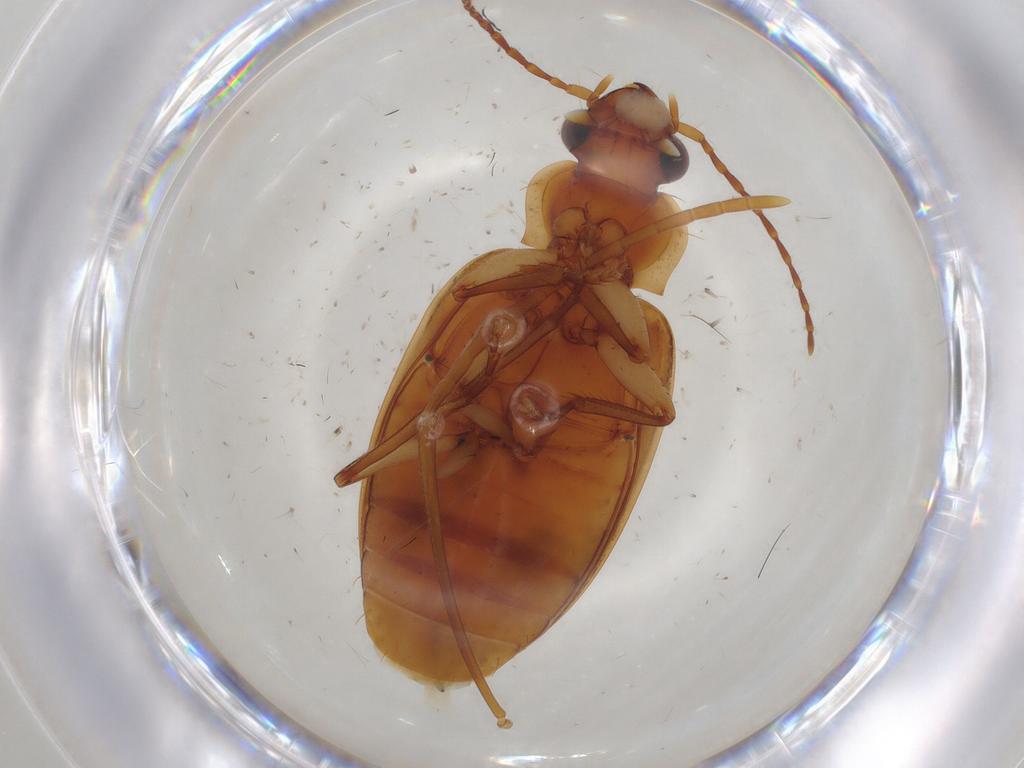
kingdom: Animalia
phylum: Arthropoda
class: Insecta
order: Coleoptera
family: Carabidae
